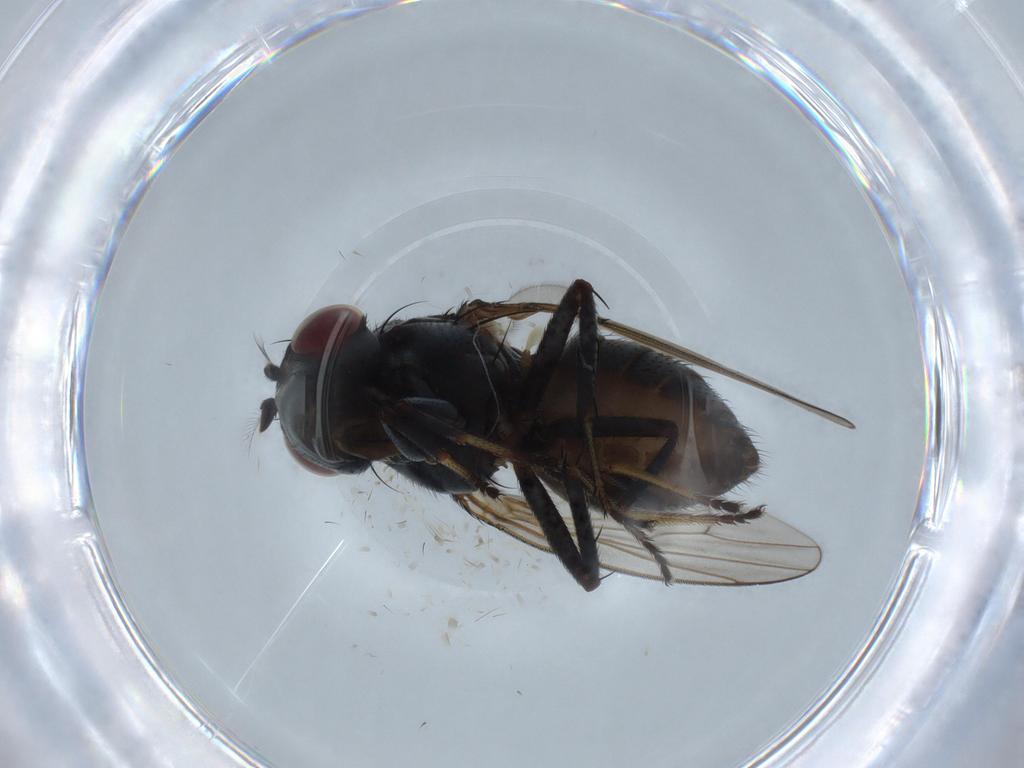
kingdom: Animalia
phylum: Arthropoda
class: Insecta
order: Diptera
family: Ephydridae
